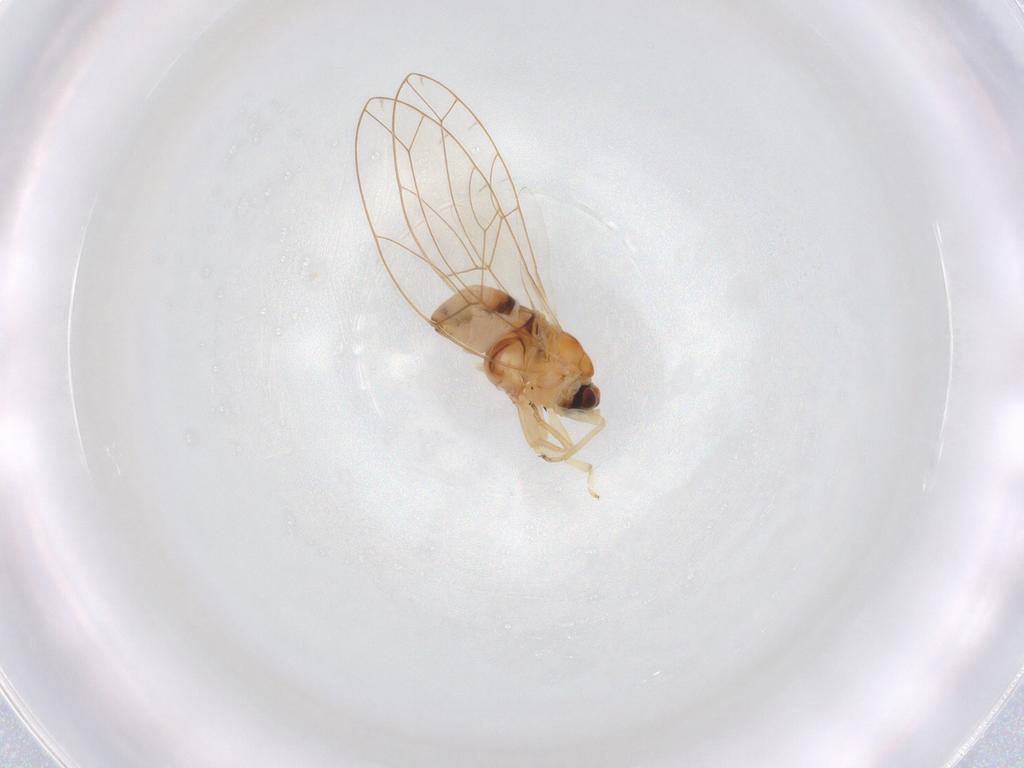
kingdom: Animalia
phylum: Arthropoda
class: Insecta
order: Hemiptera
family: Triozidae
